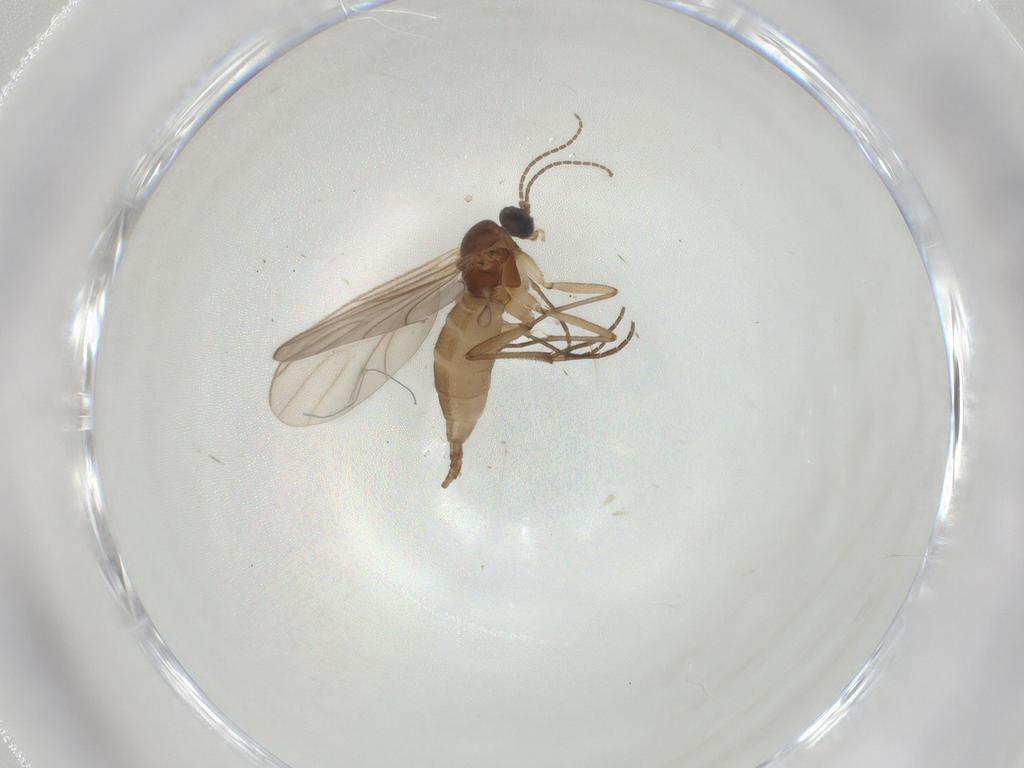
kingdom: Animalia
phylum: Arthropoda
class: Insecta
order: Diptera
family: Sciaridae
